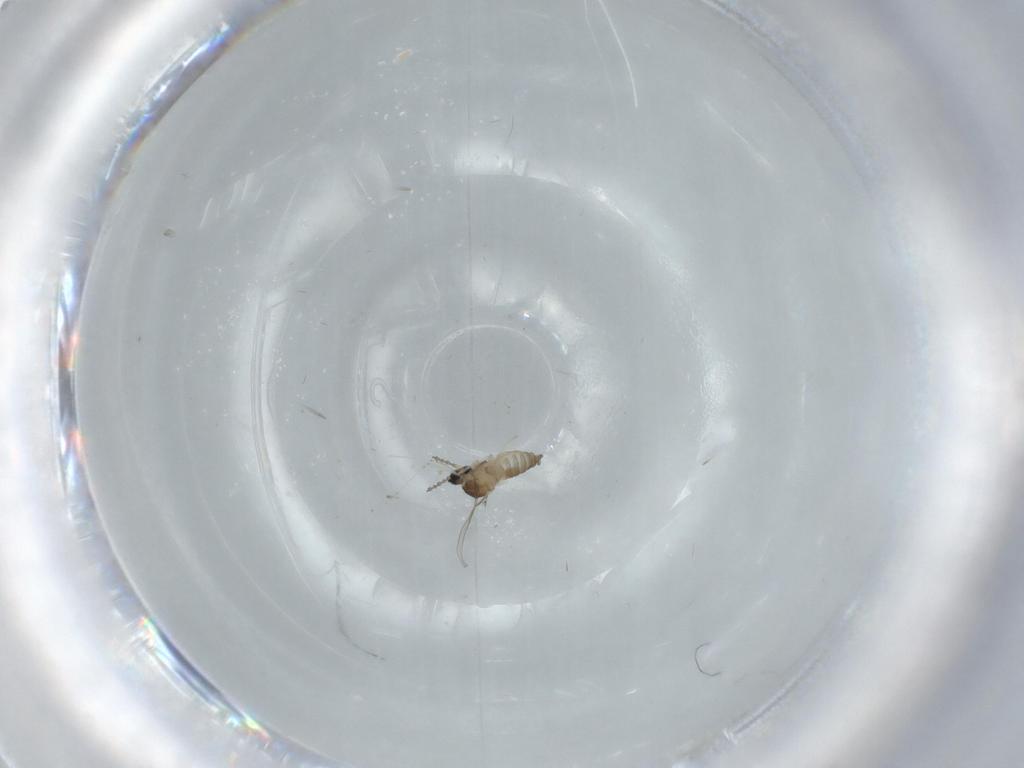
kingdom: Animalia
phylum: Arthropoda
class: Insecta
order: Diptera
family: Cecidomyiidae
